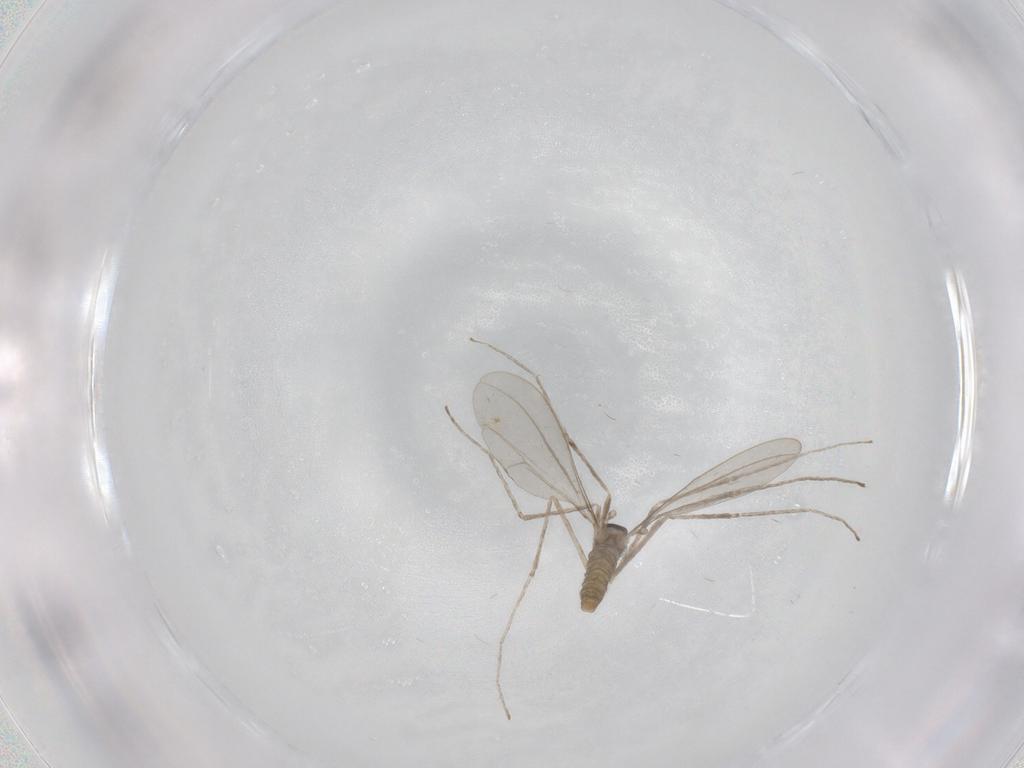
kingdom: Animalia
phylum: Arthropoda
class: Insecta
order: Diptera
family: Cecidomyiidae
